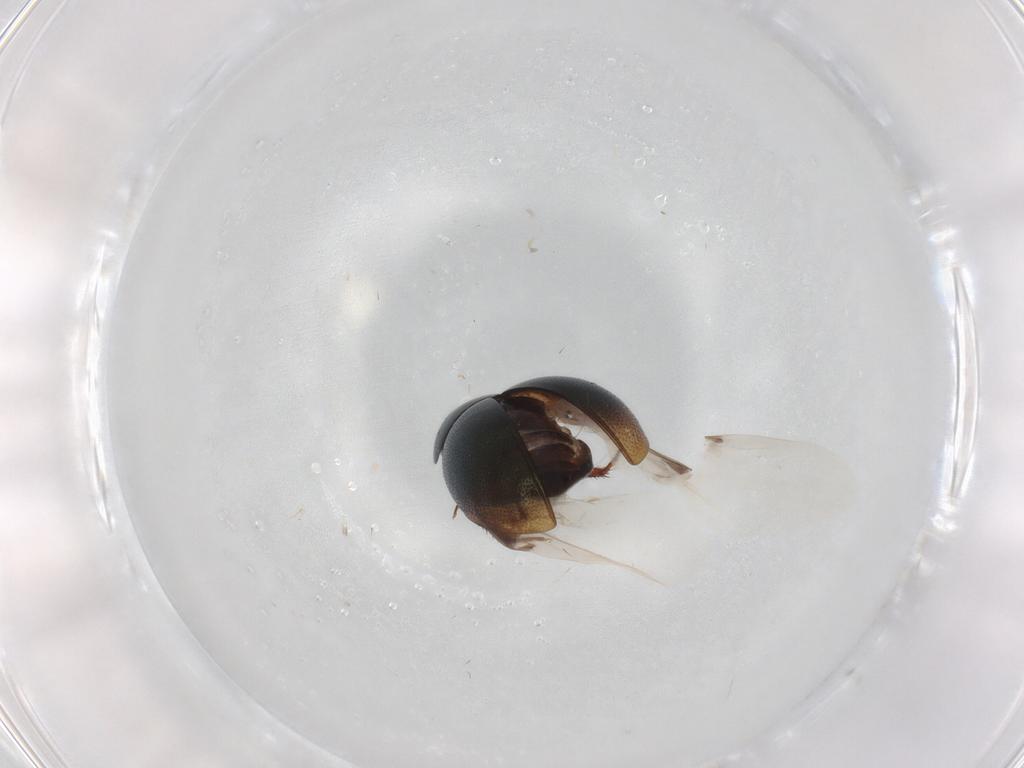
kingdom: Animalia
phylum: Arthropoda
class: Insecta
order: Coleoptera
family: Hydrophilidae
